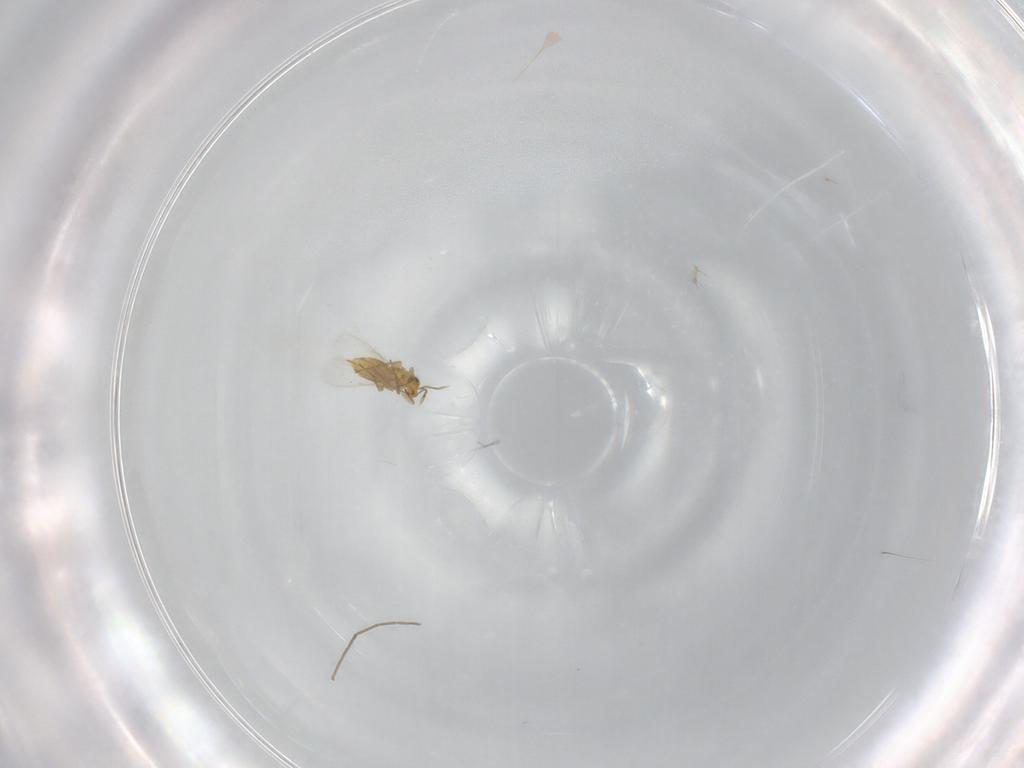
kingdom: Animalia
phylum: Arthropoda
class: Insecta
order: Hymenoptera
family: Aphelinidae
